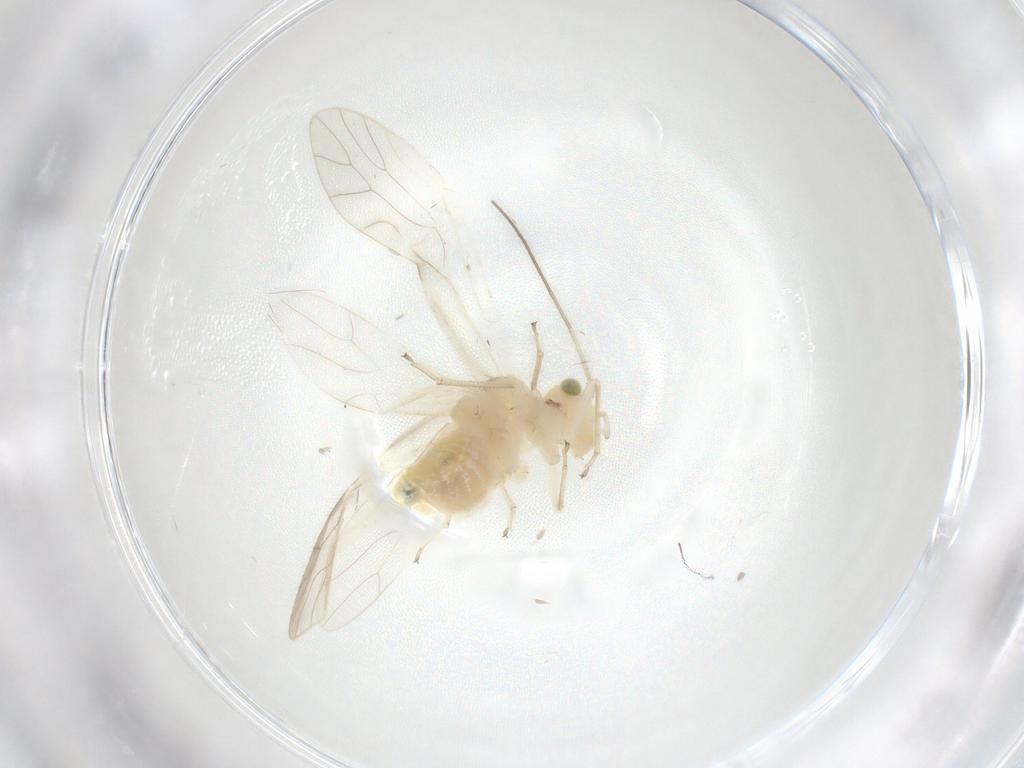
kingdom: Animalia
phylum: Arthropoda
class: Insecta
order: Psocodea
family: Caeciliusidae
